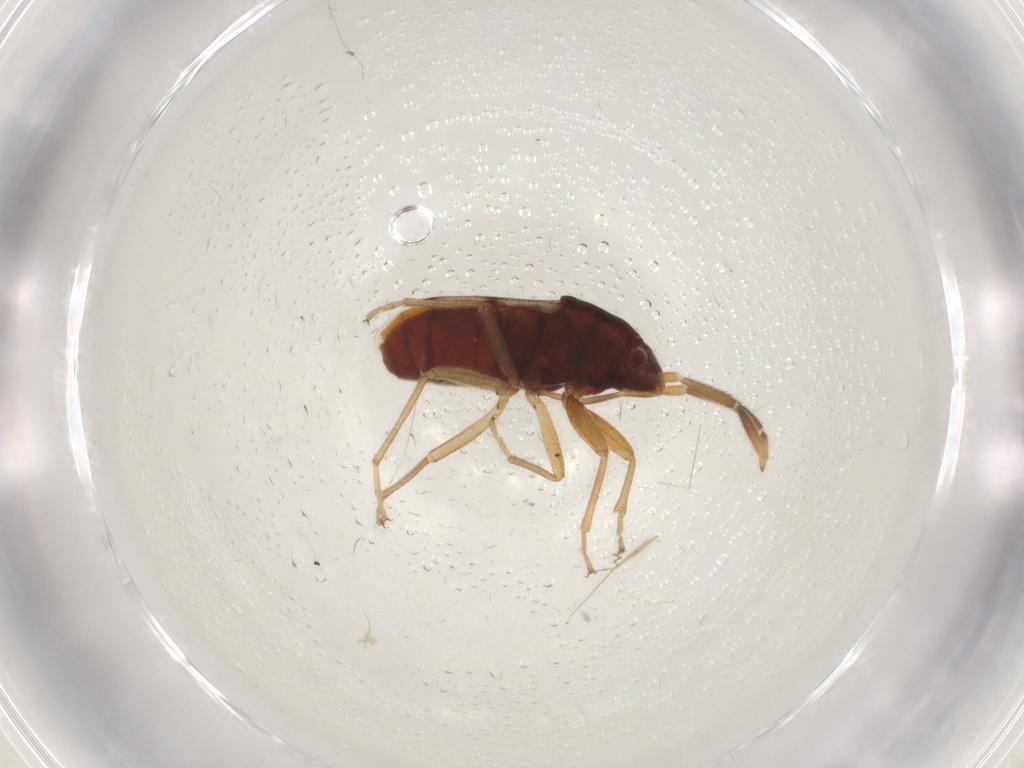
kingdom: Animalia
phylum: Arthropoda
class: Insecta
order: Hemiptera
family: Rhyparochromidae
